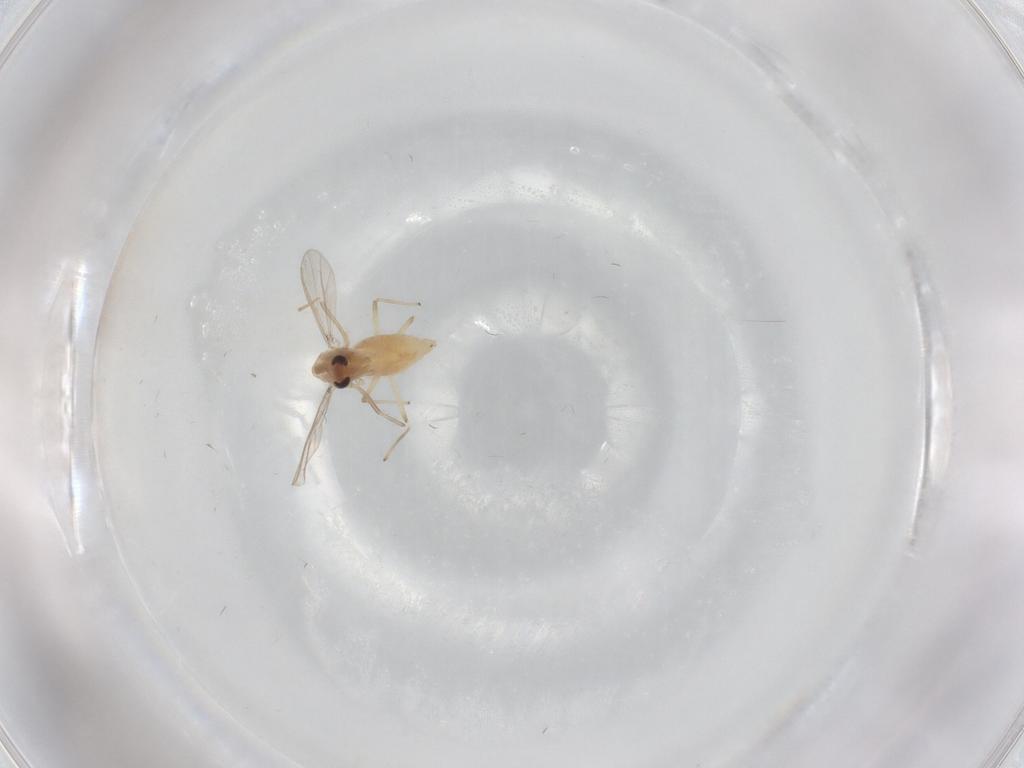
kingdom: Animalia
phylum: Arthropoda
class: Insecta
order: Diptera
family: Chironomidae
